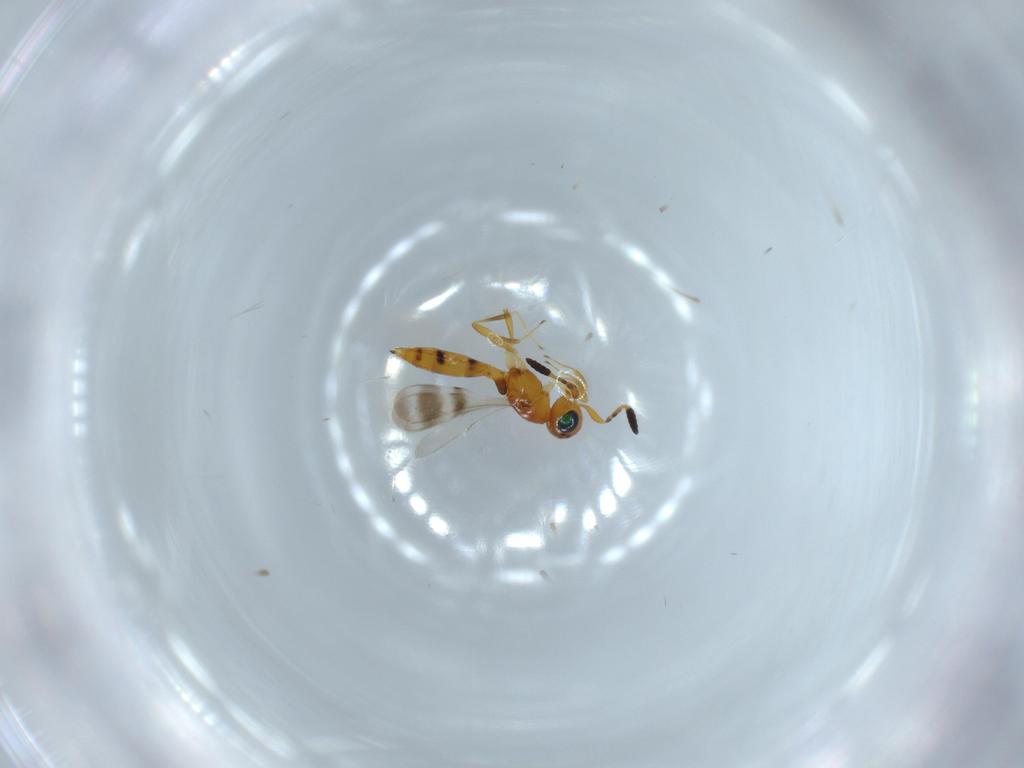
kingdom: Animalia
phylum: Arthropoda
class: Insecta
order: Hymenoptera
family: Scelionidae
